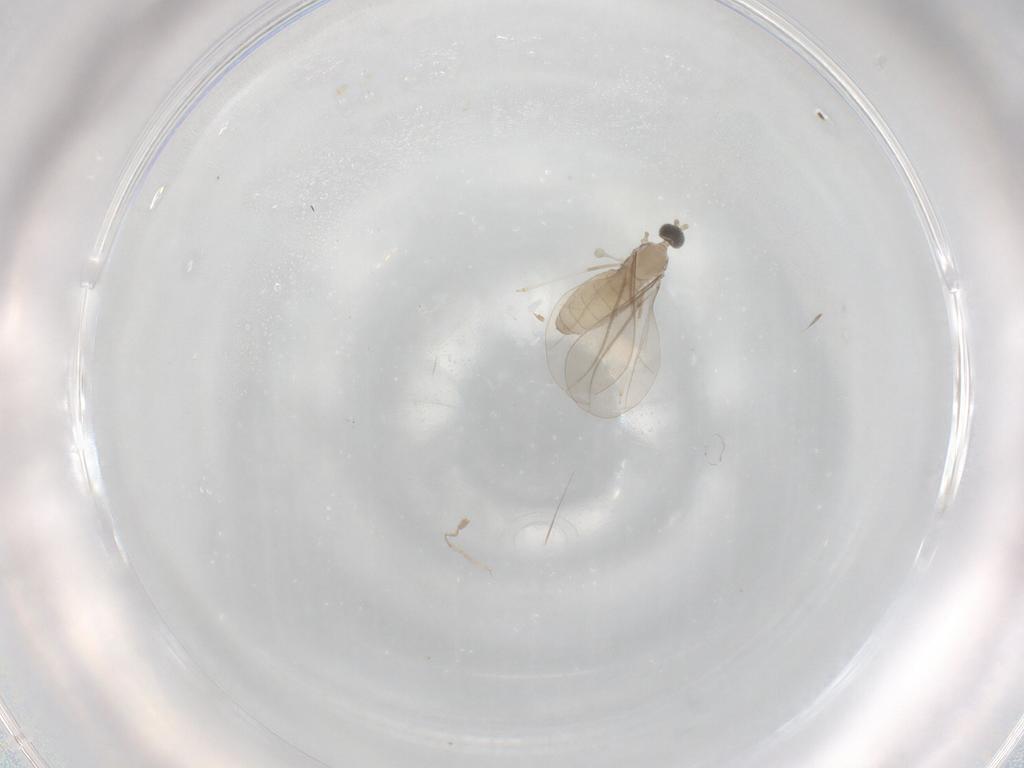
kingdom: Animalia
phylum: Arthropoda
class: Insecta
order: Diptera
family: Cecidomyiidae
